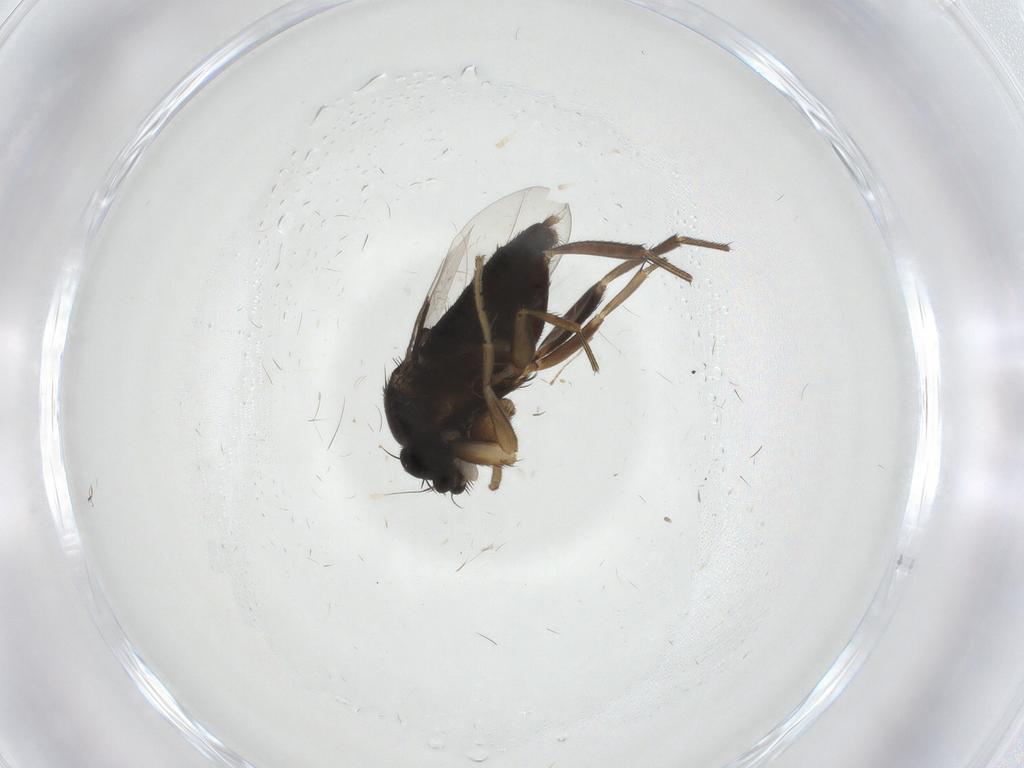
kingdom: Animalia
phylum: Arthropoda
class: Insecta
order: Diptera
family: Phoridae
